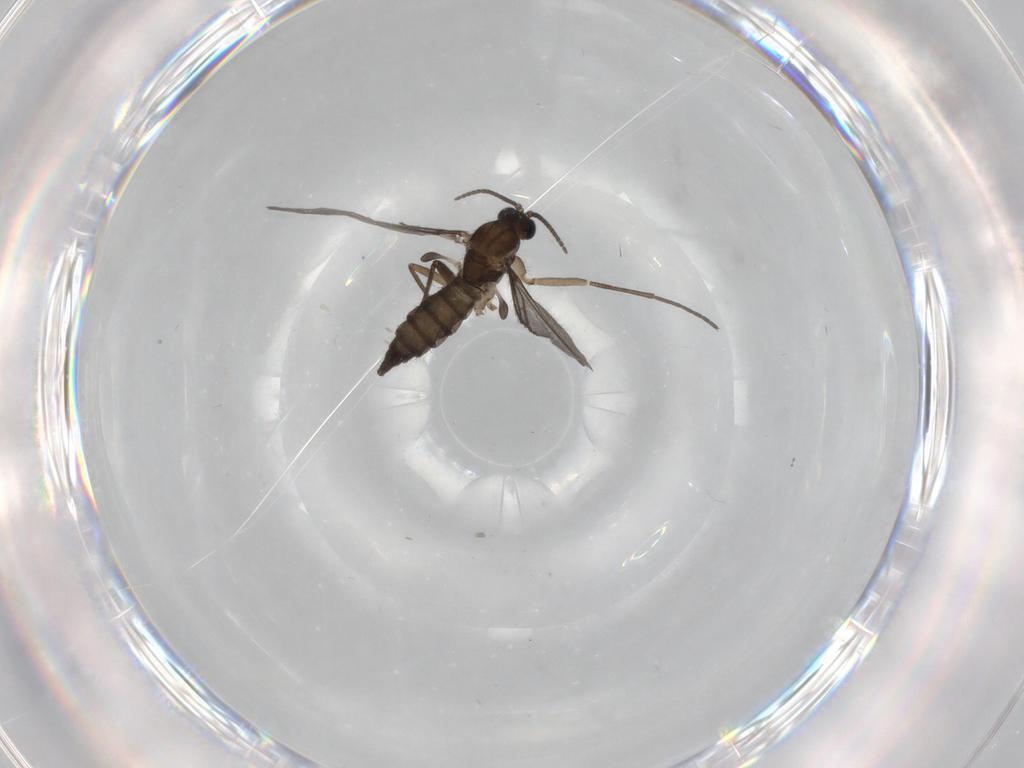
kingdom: Animalia
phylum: Arthropoda
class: Insecta
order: Diptera
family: Sciaridae
